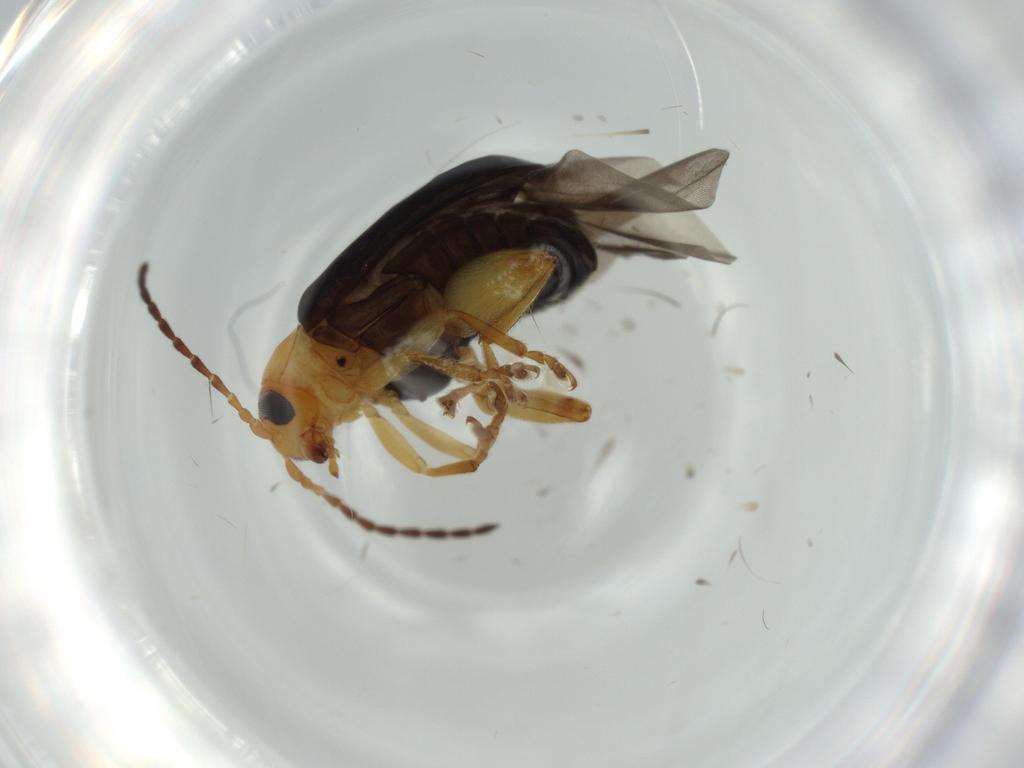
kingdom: Animalia
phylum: Arthropoda
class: Insecta
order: Coleoptera
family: Chrysomelidae
